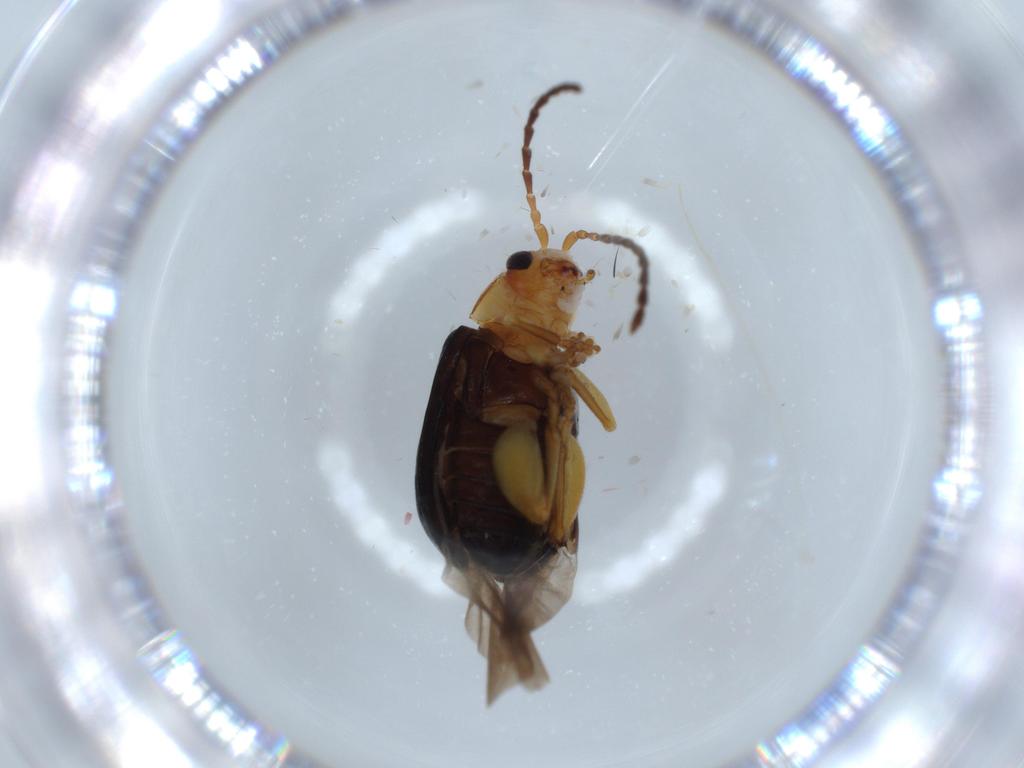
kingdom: Animalia
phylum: Arthropoda
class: Insecta
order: Coleoptera
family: Chrysomelidae
